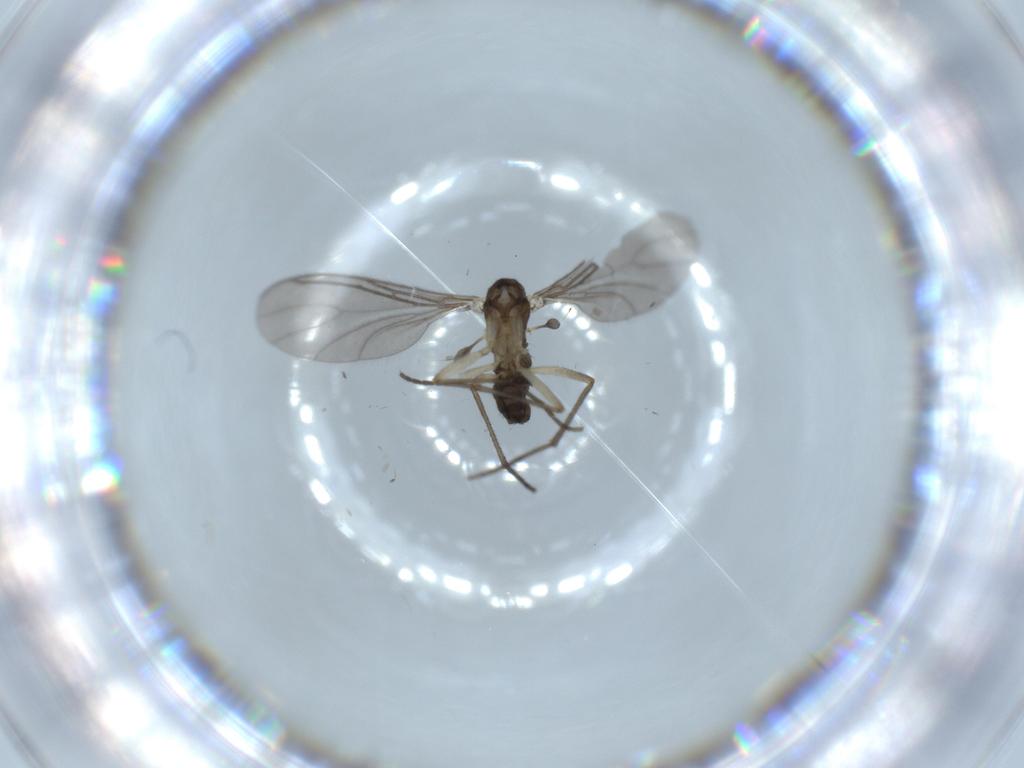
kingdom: Animalia
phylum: Arthropoda
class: Insecta
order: Diptera
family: Sciaridae
